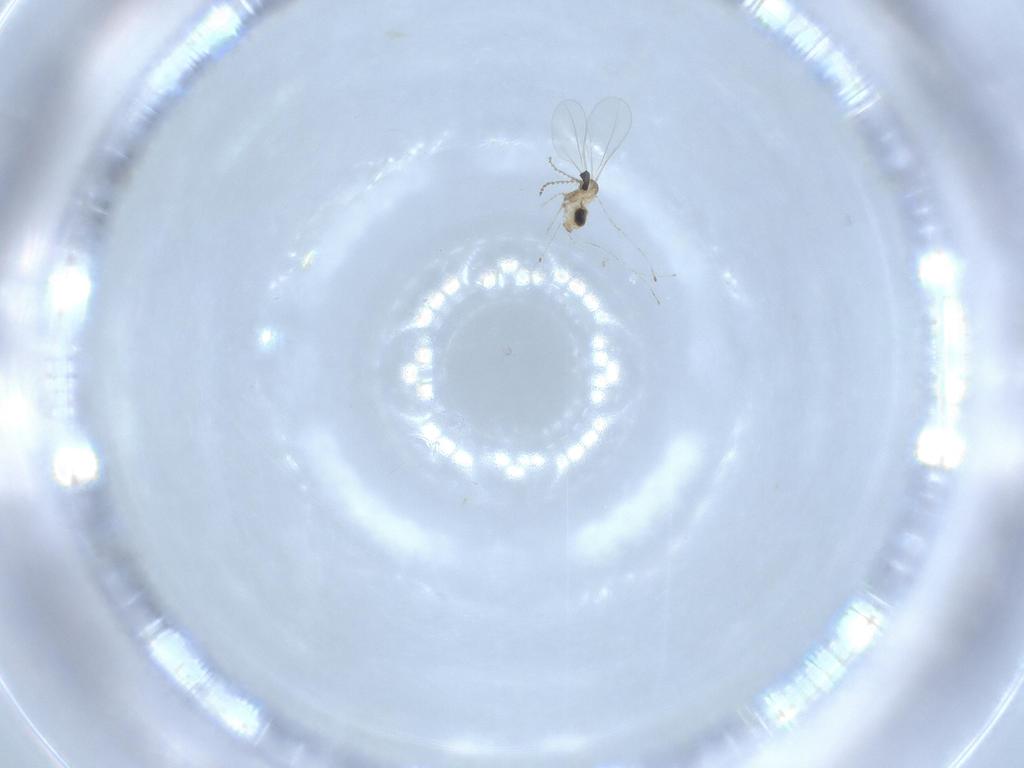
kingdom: Animalia
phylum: Arthropoda
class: Insecta
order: Diptera
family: Cecidomyiidae
